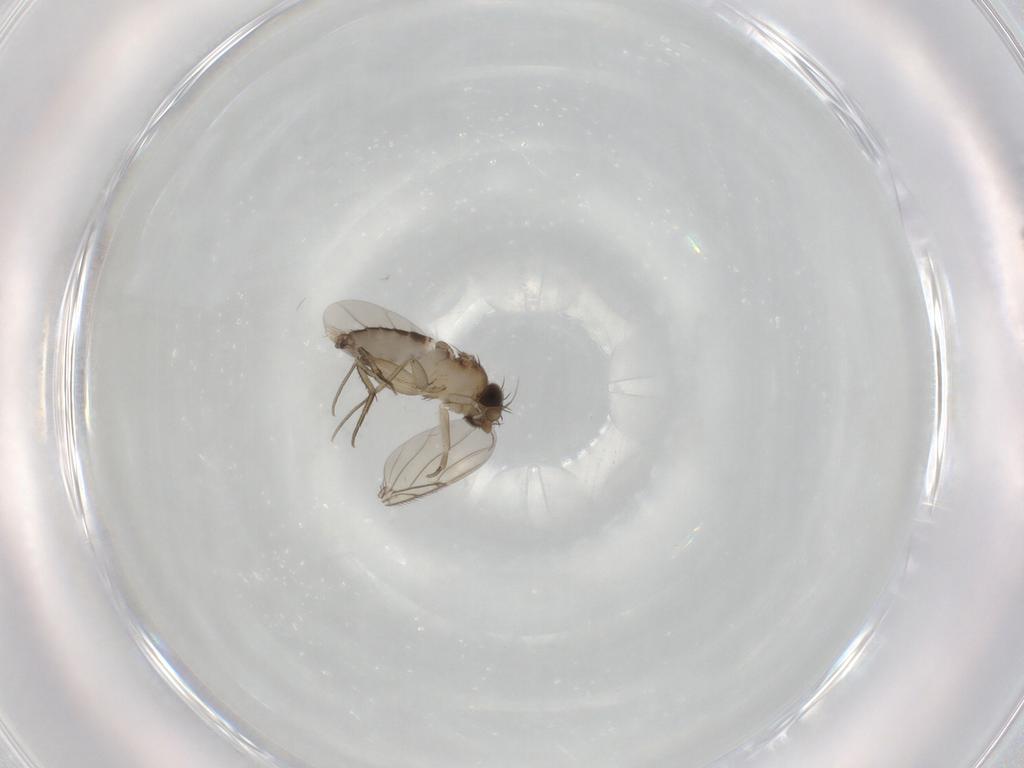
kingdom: Animalia
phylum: Arthropoda
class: Insecta
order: Diptera
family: Phoridae
